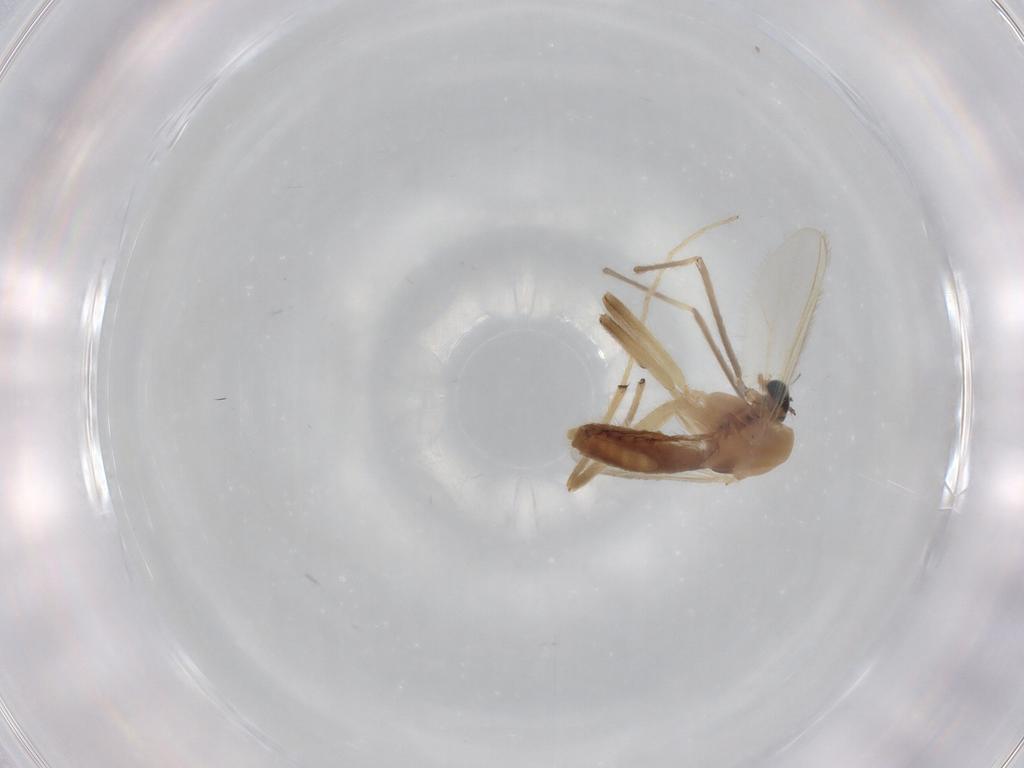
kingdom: Animalia
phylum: Arthropoda
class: Insecta
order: Diptera
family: Chironomidae
